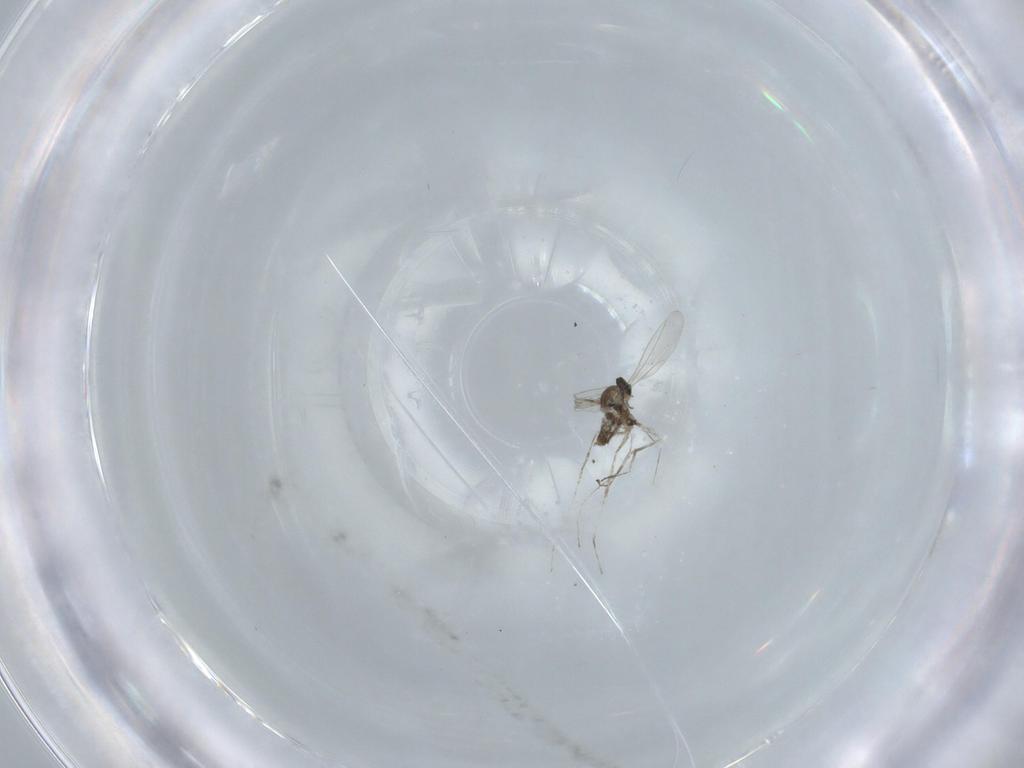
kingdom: Animalia
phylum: Arthropoda
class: Insecta
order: Diptera
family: Cecidomyiidae
